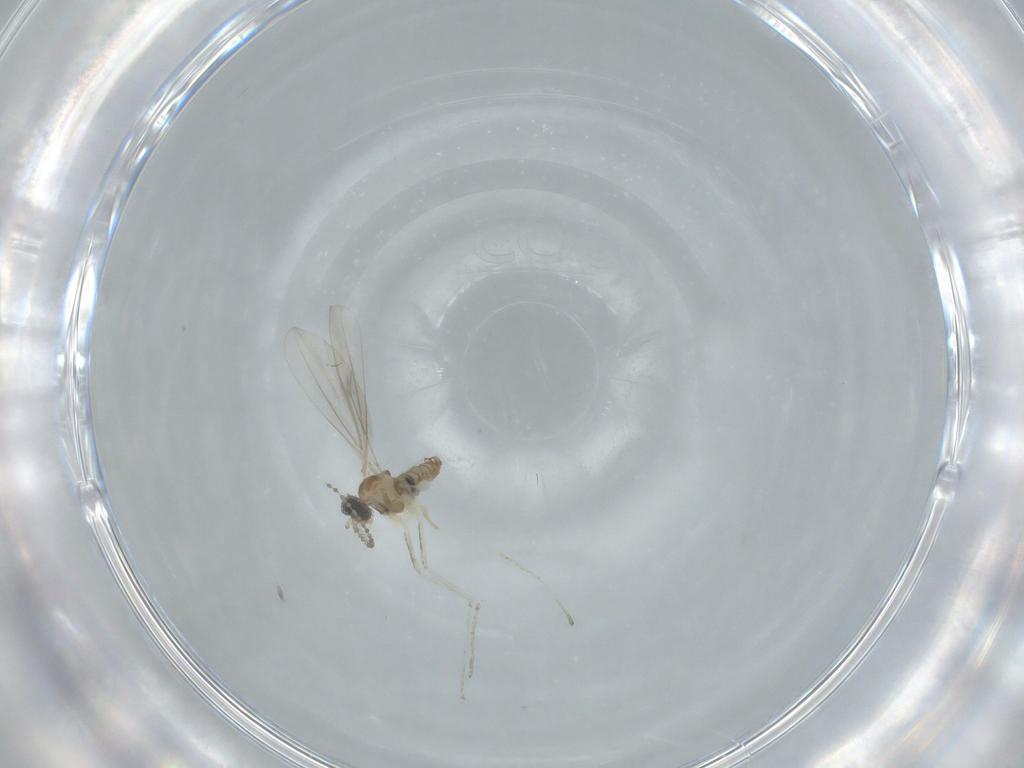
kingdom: Animalia
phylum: Arthropoda
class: Insecta
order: Diptera
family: Cecidomyiidae
